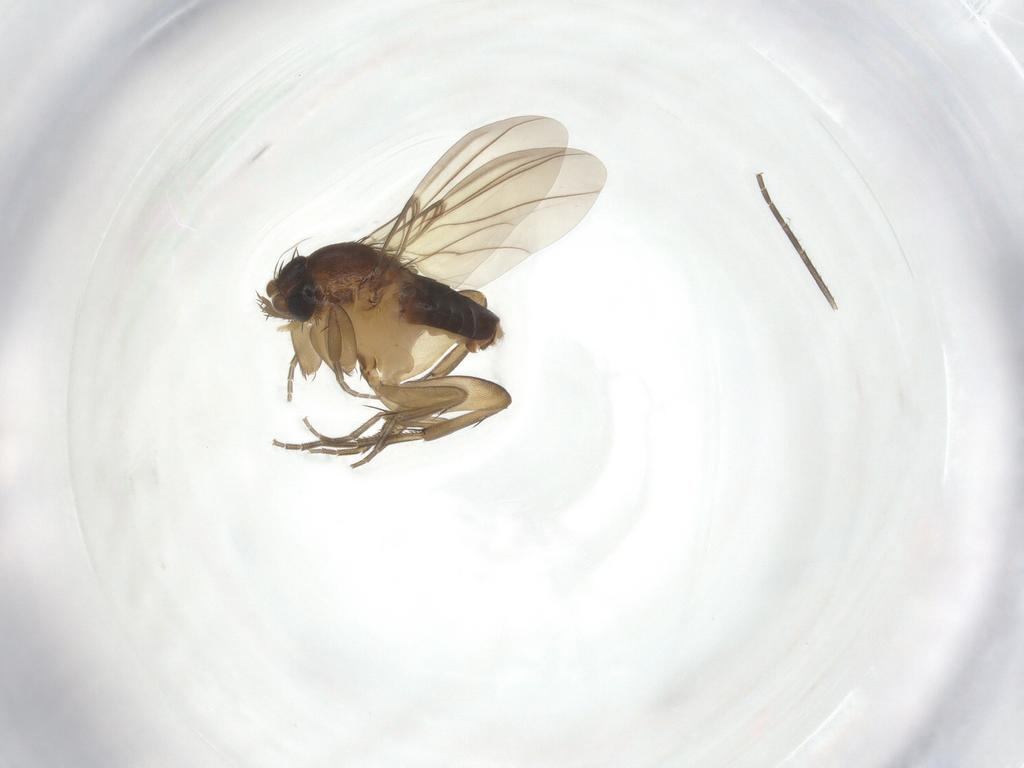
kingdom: Animalia
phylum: Arthropoda
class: Insecta
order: Diptera
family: Phoridae
